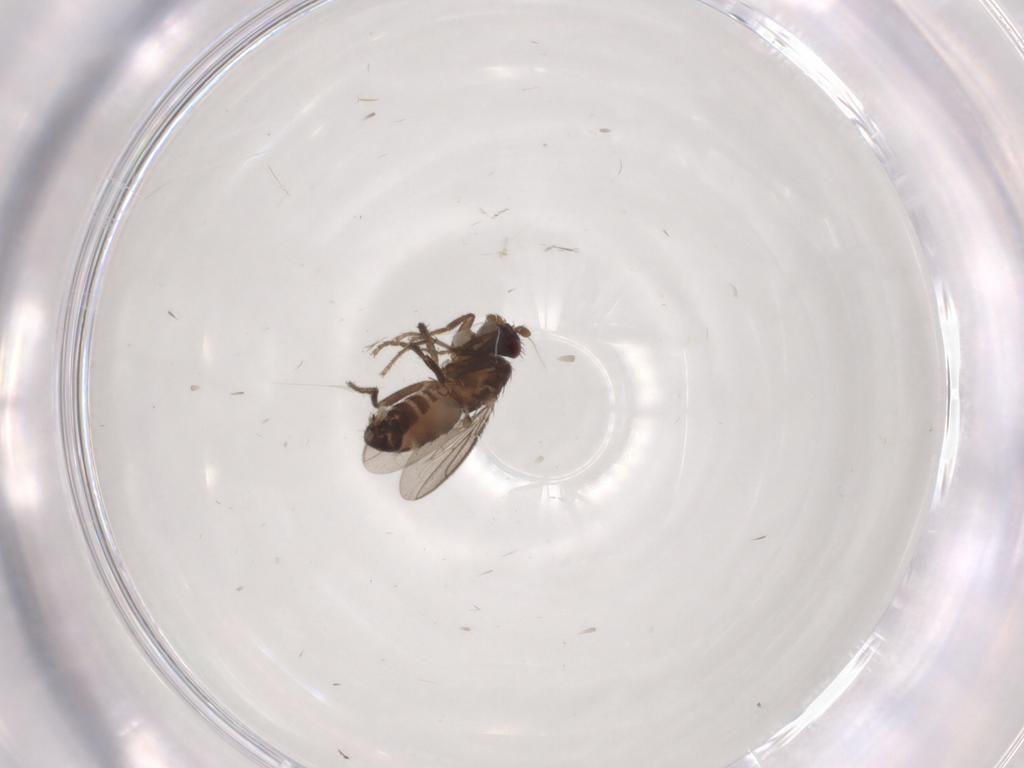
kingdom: Animalia
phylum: Arthropoda
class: Insecta
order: Diptera
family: Sphaeroceridae
